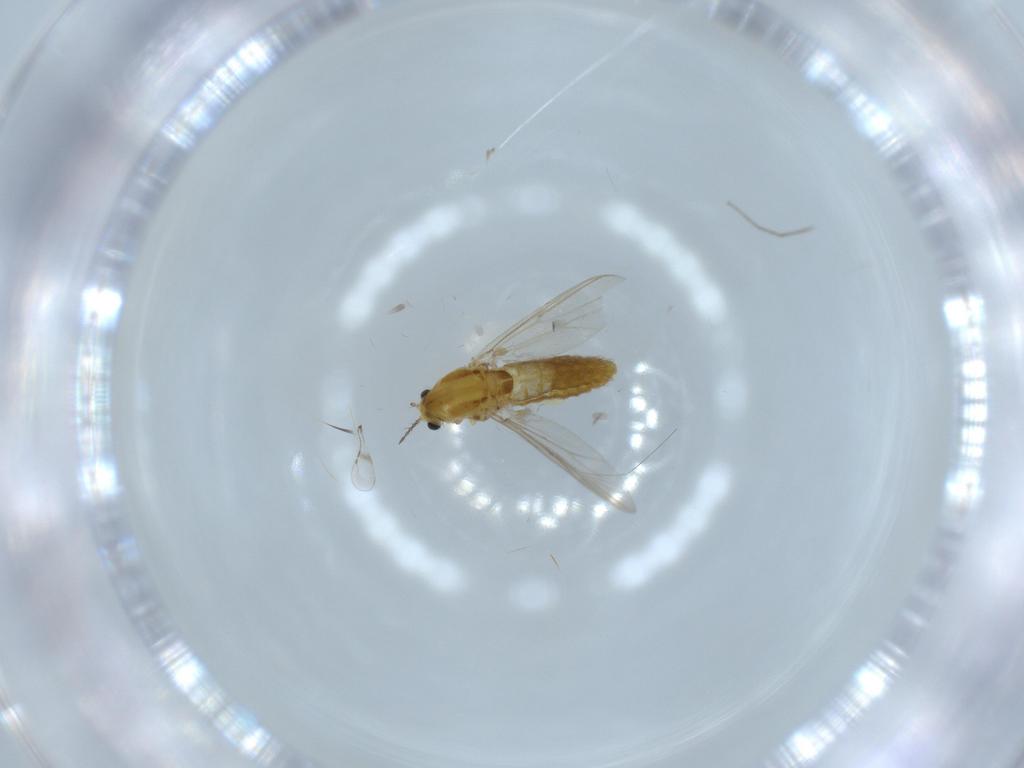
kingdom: Animalia
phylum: Arthropoda
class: Insecta
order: Diptera
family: Chironomidae
